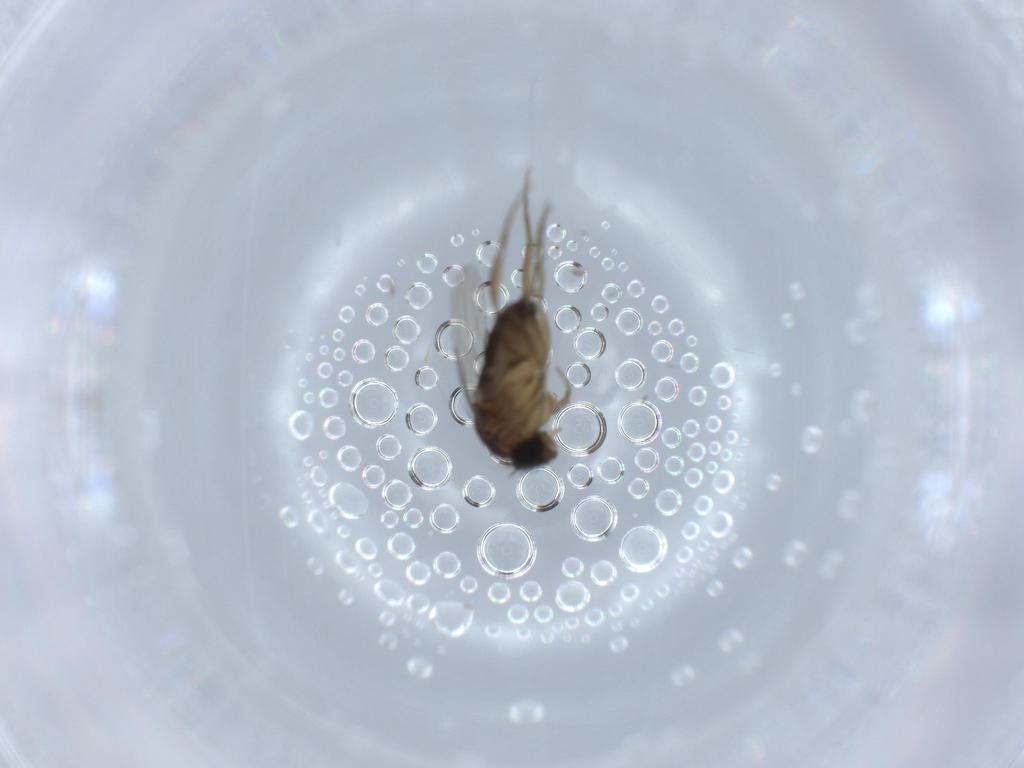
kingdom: Animalia
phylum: Arthropoda
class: Insecta
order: Diptera
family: Phoridae
